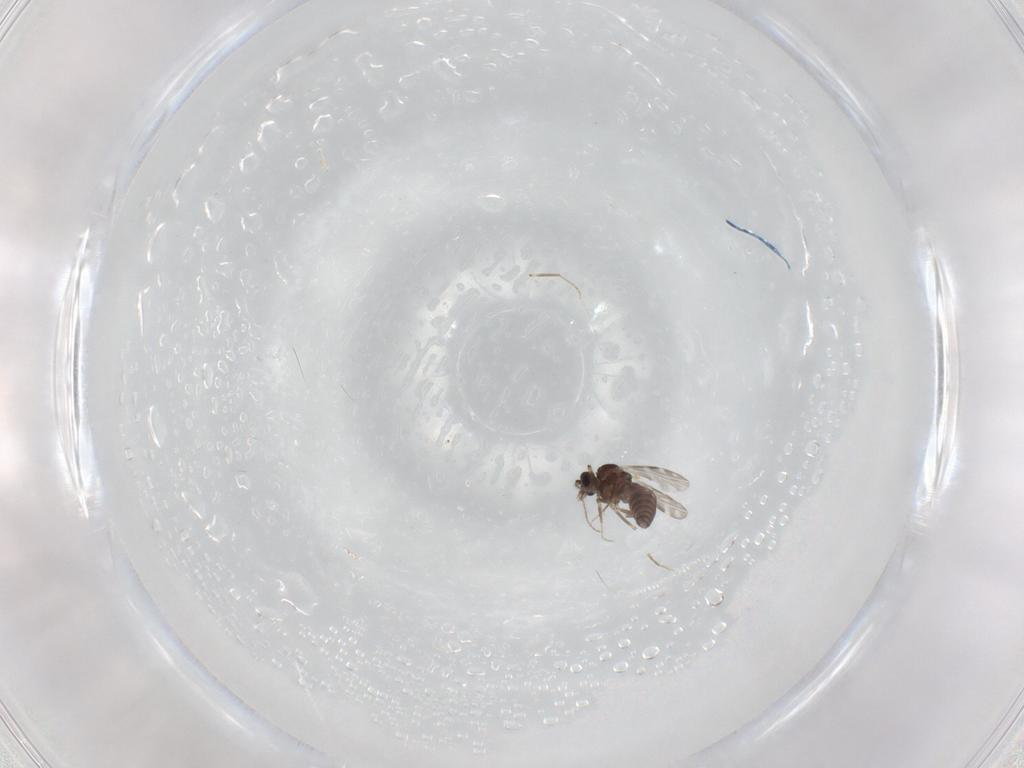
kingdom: Animalia
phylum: Arthropoda
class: Insecta
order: Diptera
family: Ceratopogonidae
